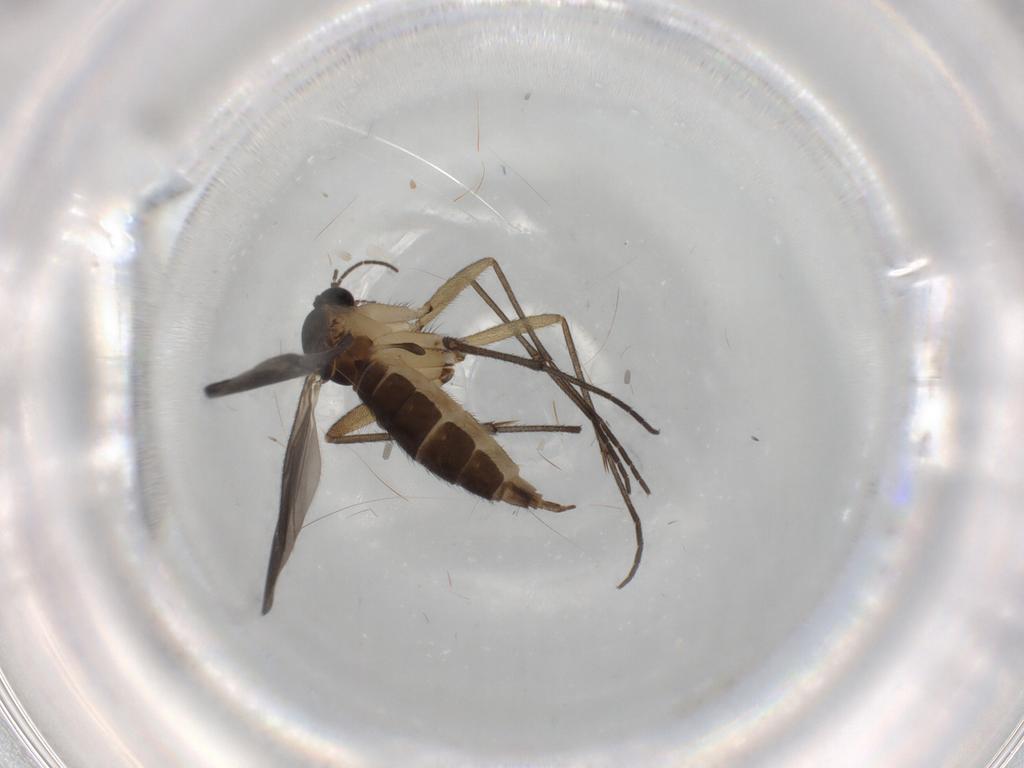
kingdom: Animalia
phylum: Arthropoda
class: Insecta
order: Diptera
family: Sciaridae
